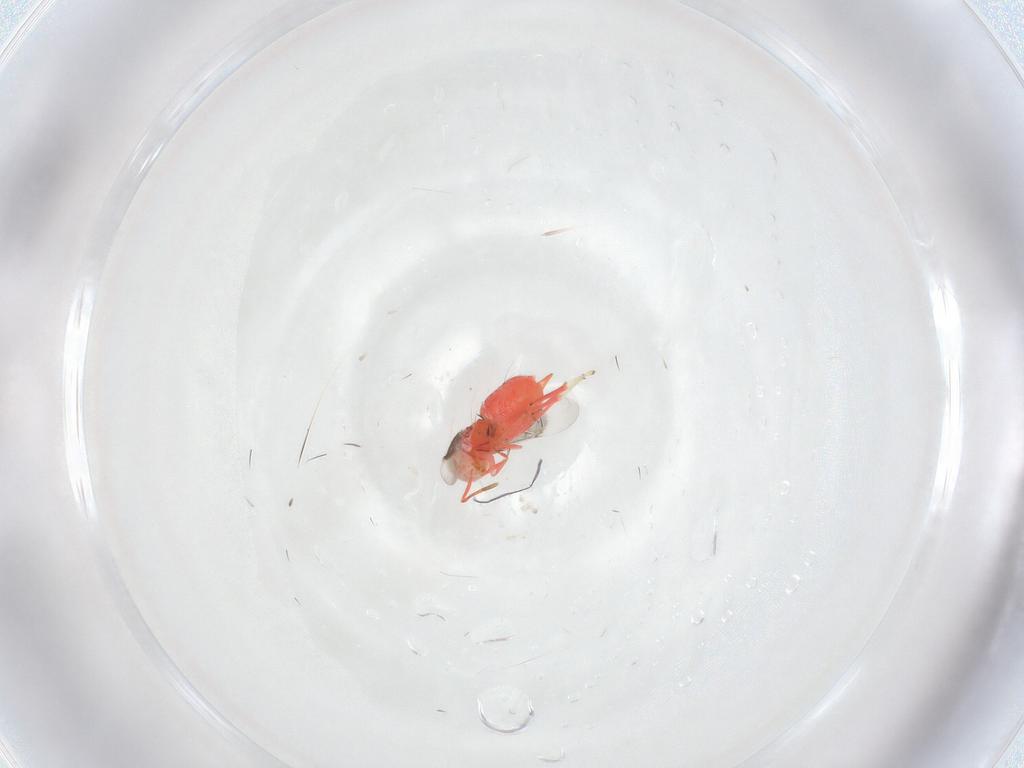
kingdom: Animalia
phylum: Arthropoda
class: Insecta
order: Hymenoptera
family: Encyrtidae
